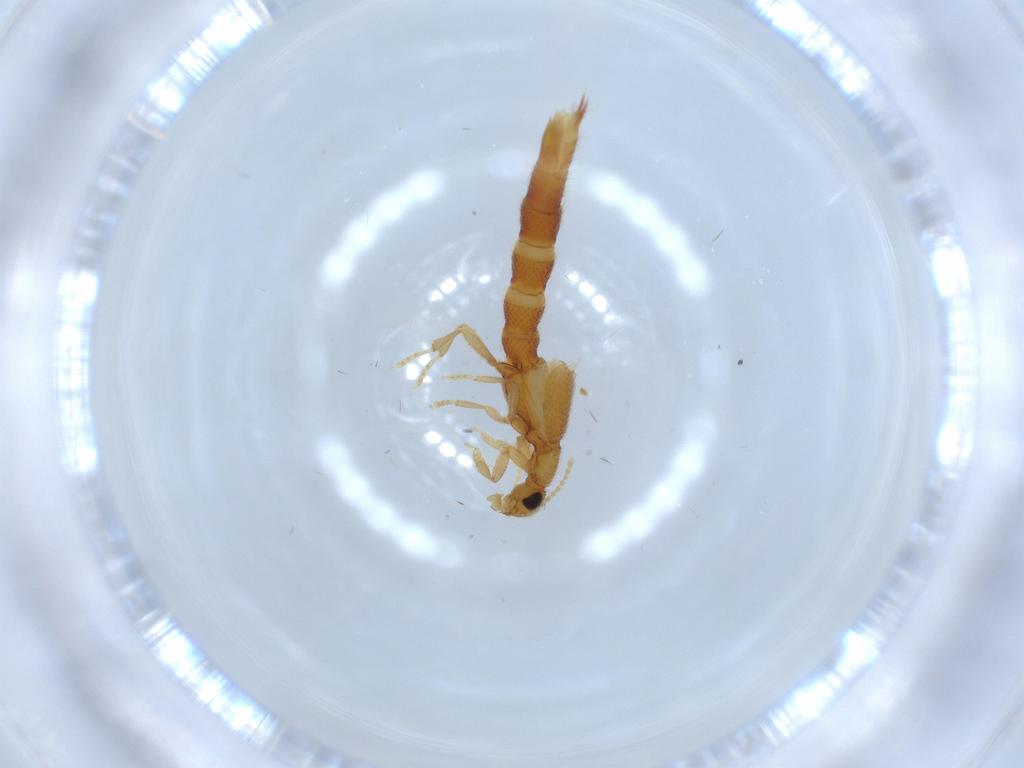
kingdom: Animalia
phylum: Arthropoda
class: Insecta
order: Coleoptera
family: Staphylinidae
